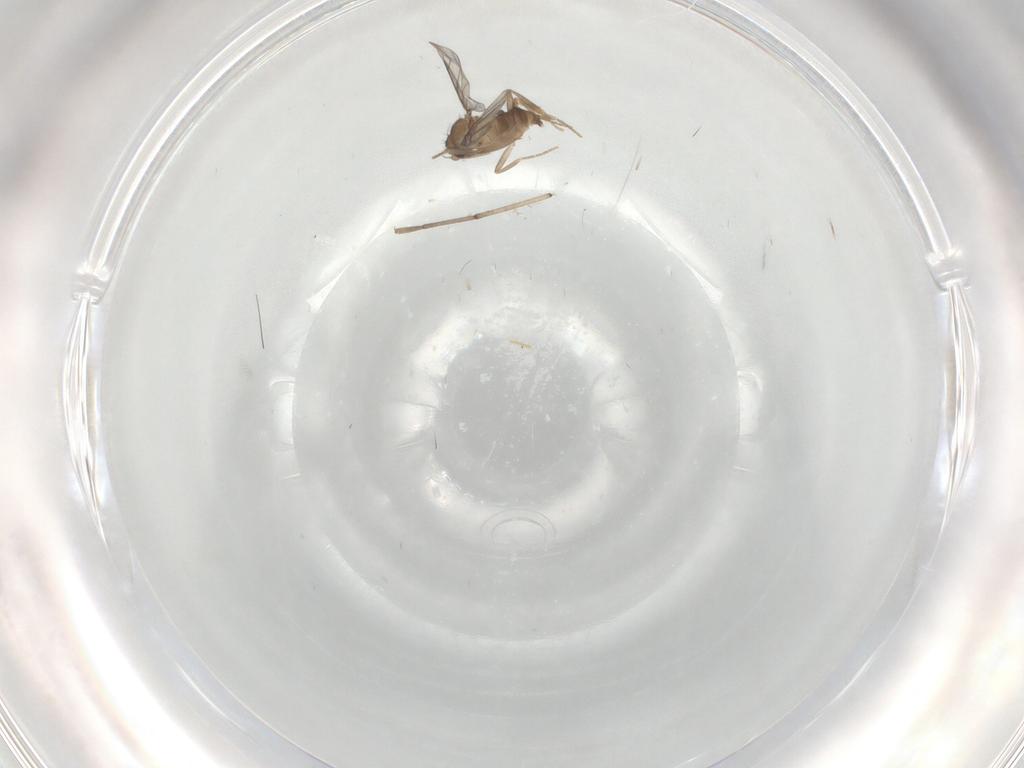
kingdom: Animalia
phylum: Arthropoda
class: Insecta
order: Diptera
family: Cecidomyiidae
